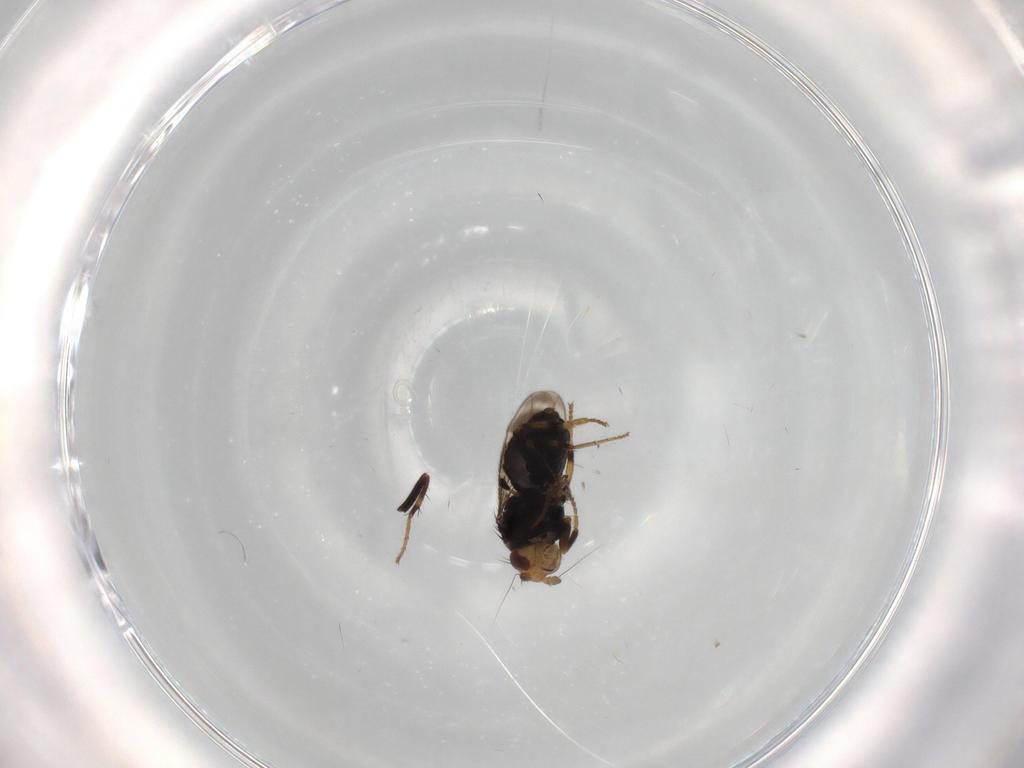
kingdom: Animalia
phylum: Arthropoda
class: Insecta
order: Diptera
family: Sphaeroceridae
